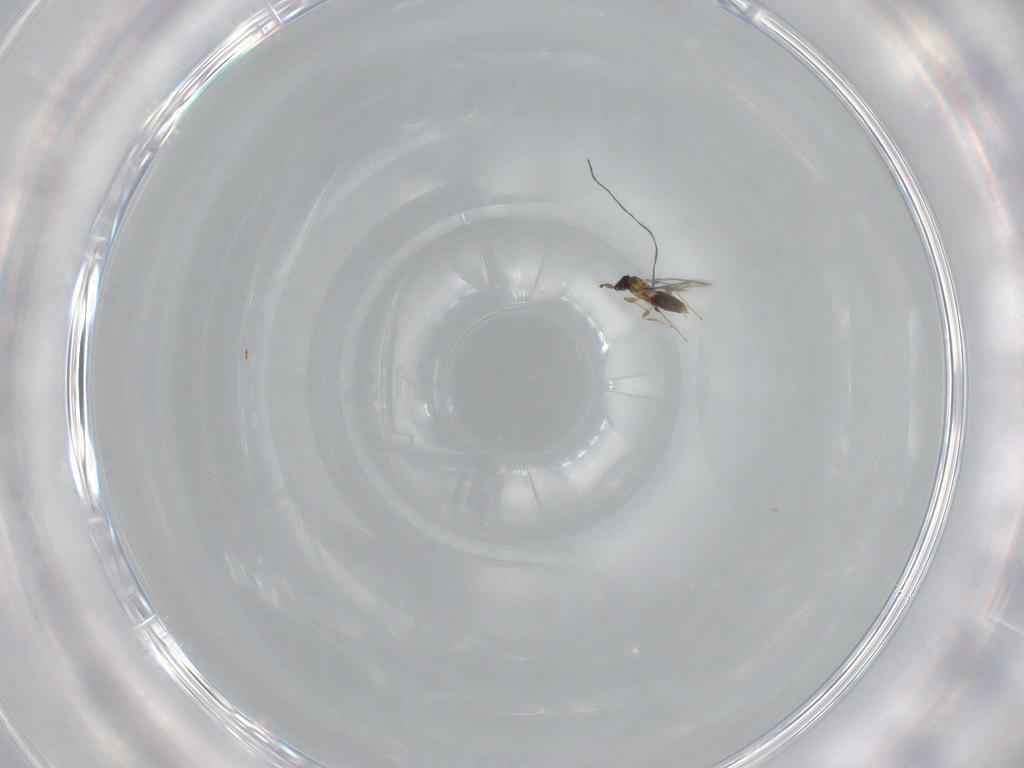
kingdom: Animalia
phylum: Arthropoda
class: Insecta
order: Hymenoptera
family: Mymaridae
